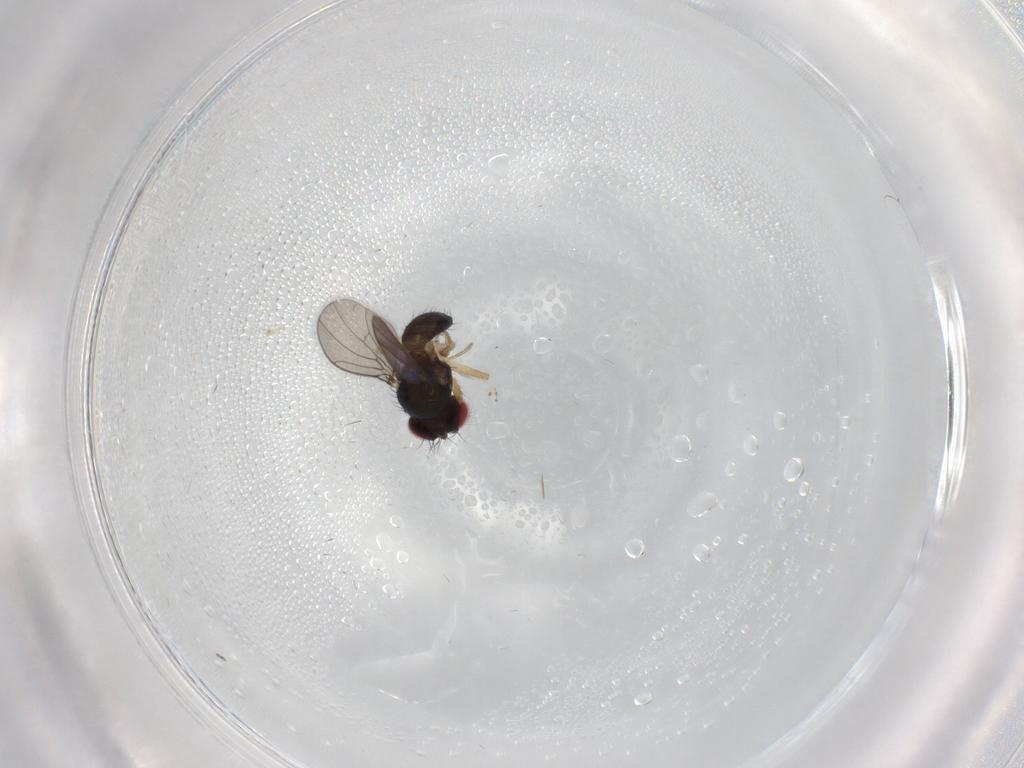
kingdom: Animalia
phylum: Arthropoda
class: Insecta
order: Diptera
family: Drosophilidae
